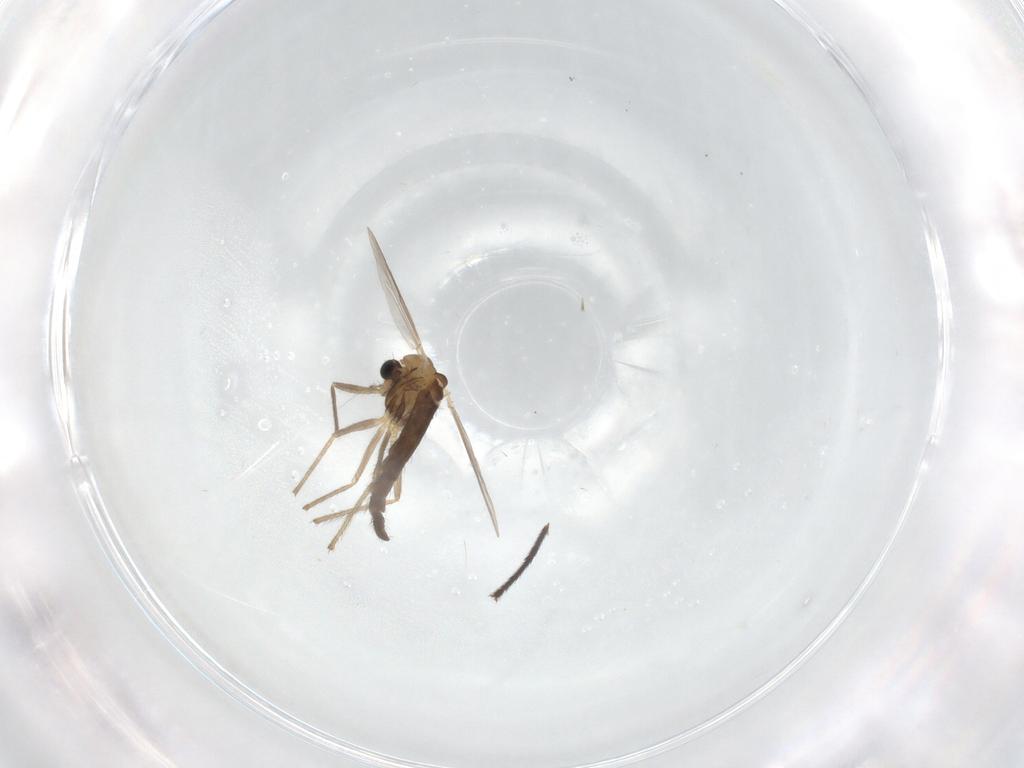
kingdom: Animalia
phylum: Arthropoda
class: Insecta
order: Diptera
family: Chironomidae
